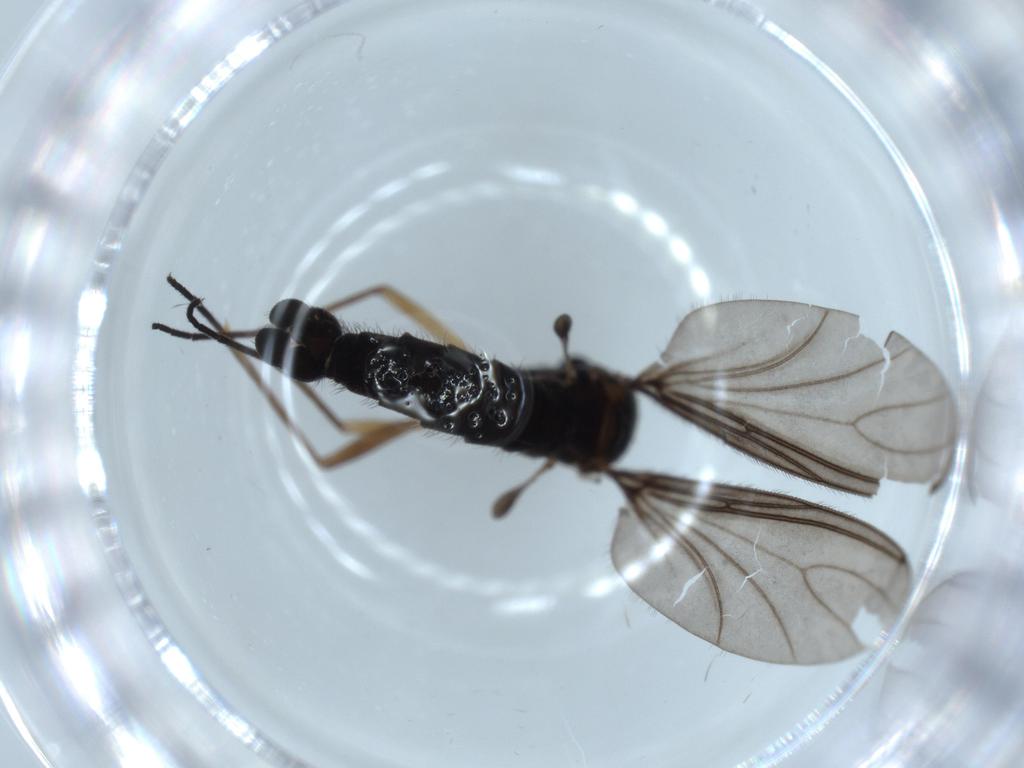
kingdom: Animalia
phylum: Arthropoda
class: Insecta
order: Diptera
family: Sciaridae
